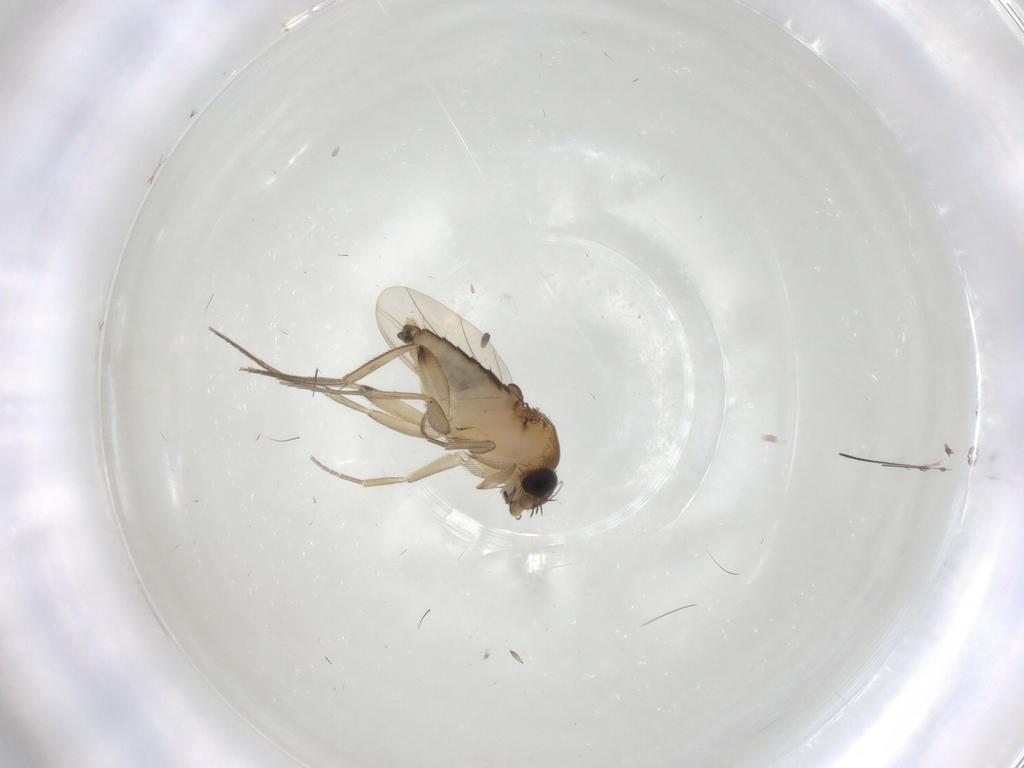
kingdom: Animalia
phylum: Arthropoda
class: Insecta
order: Diptera
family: Phoridae
